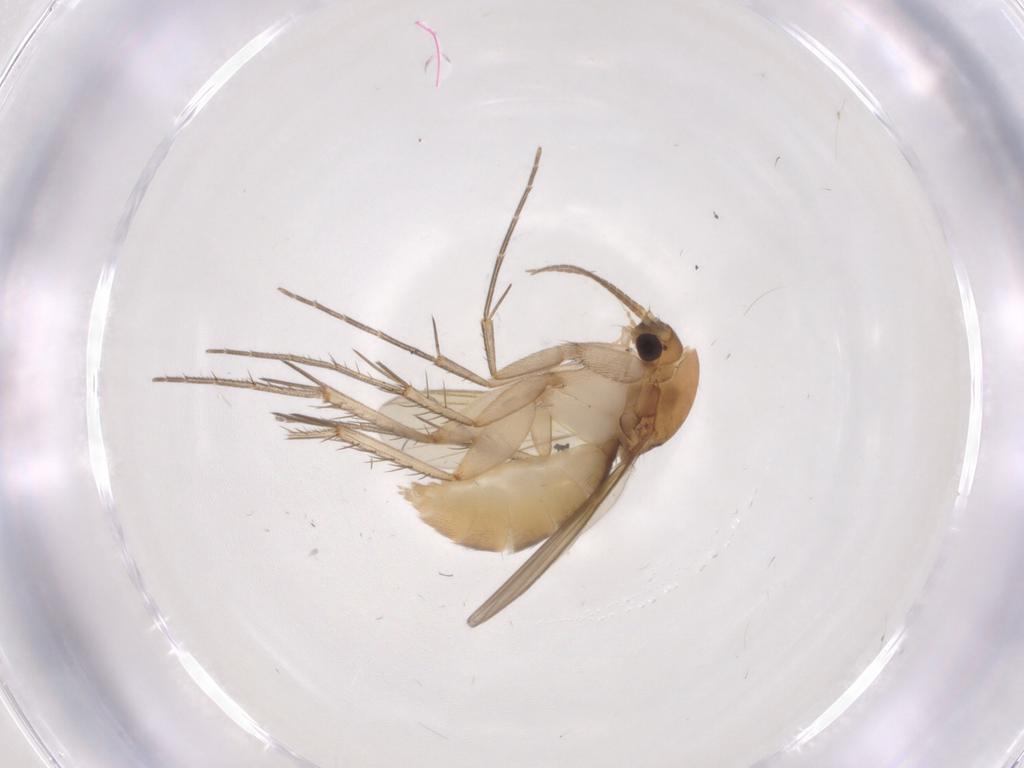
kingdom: Animalia
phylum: Arthropoda
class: Insecta
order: Diptera
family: Mycetophilidae
